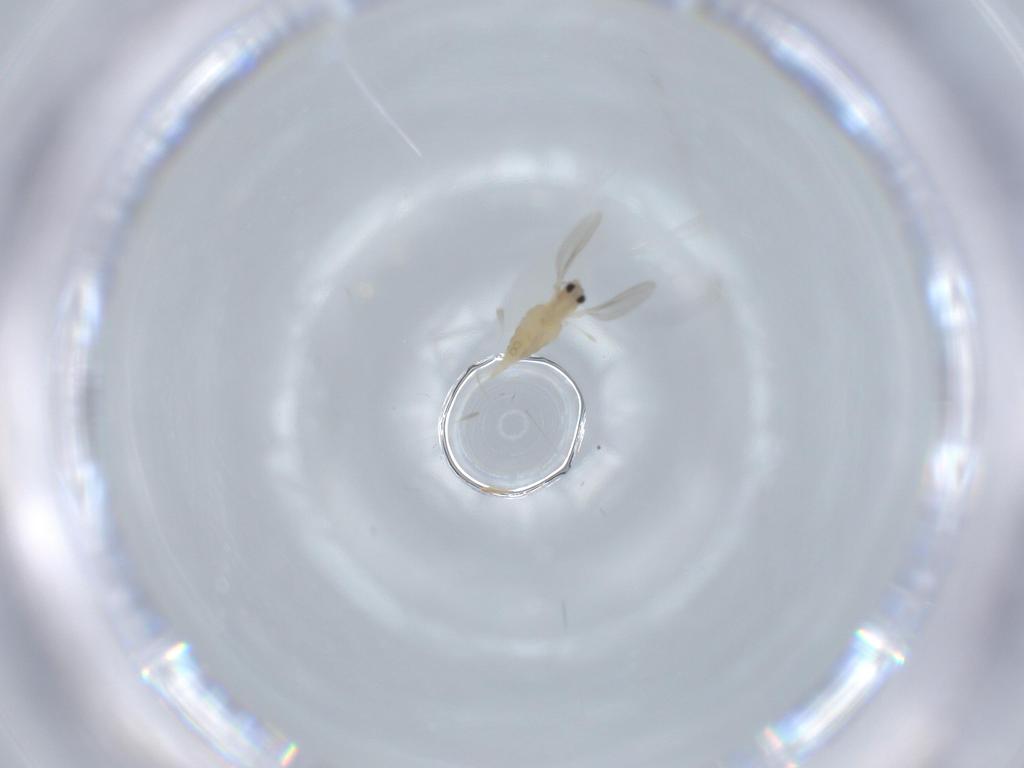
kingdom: Animalia
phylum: Arthropoda
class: Insecta
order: Diptera
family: Cecidomyiidae
